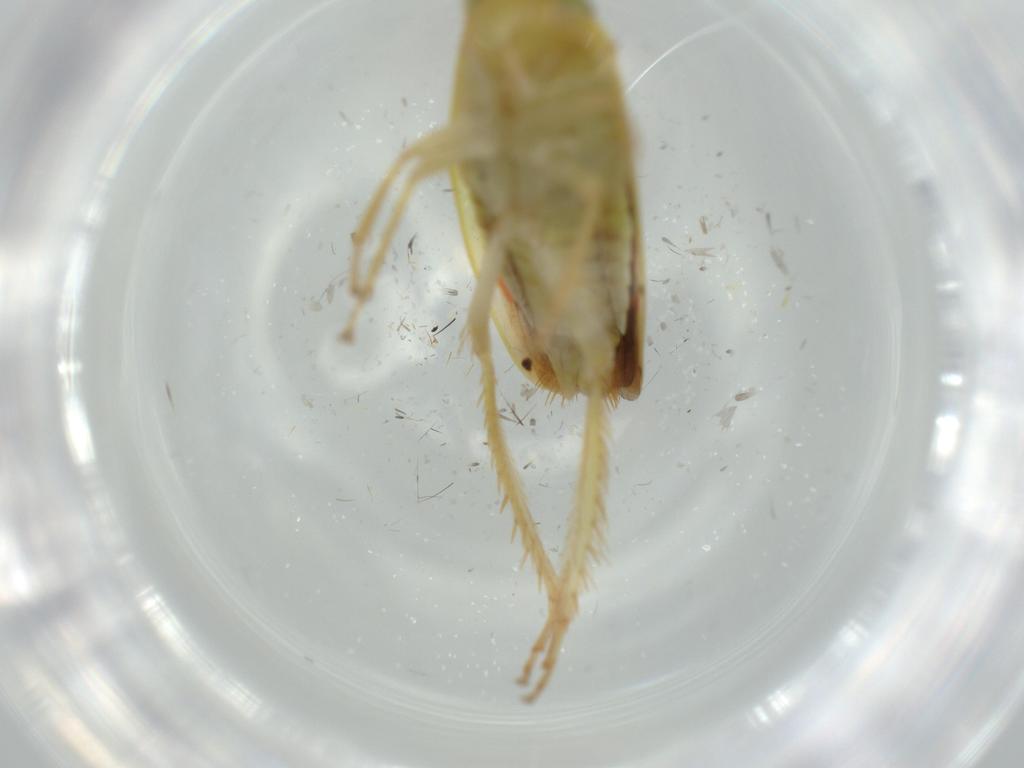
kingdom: Animalia
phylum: Arthropoda
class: Insecta
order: Hemiptera
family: Cicadellidae
